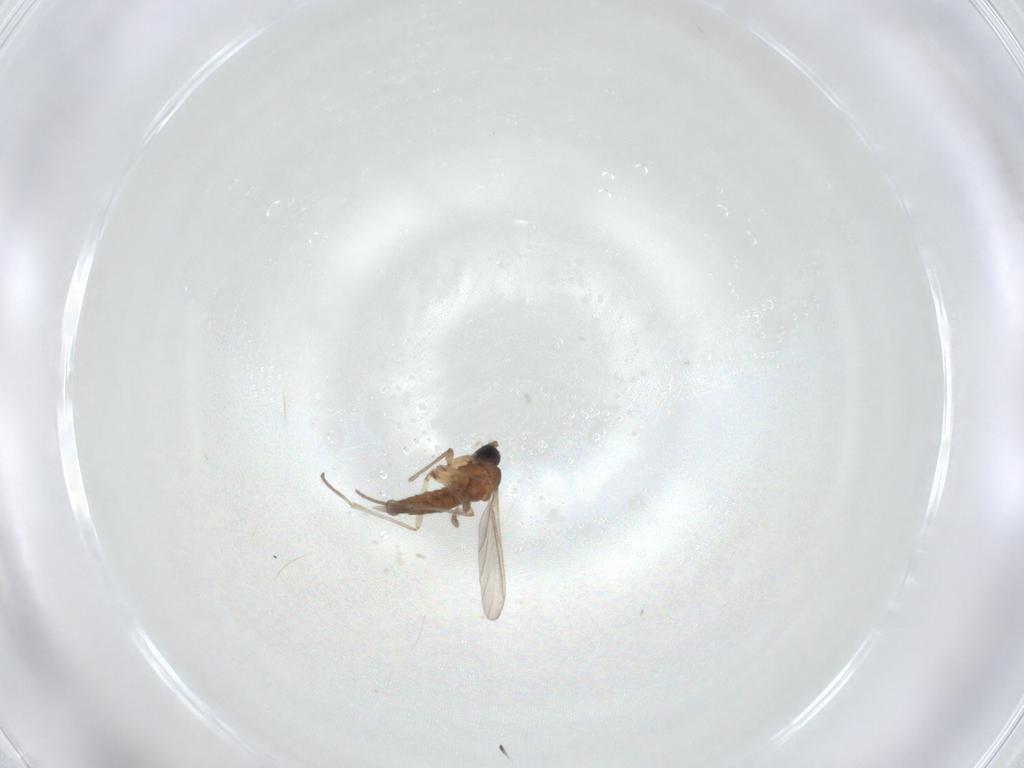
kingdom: Animalia
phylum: Arthropoda
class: Insecta
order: Diptera
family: Sciaridae
